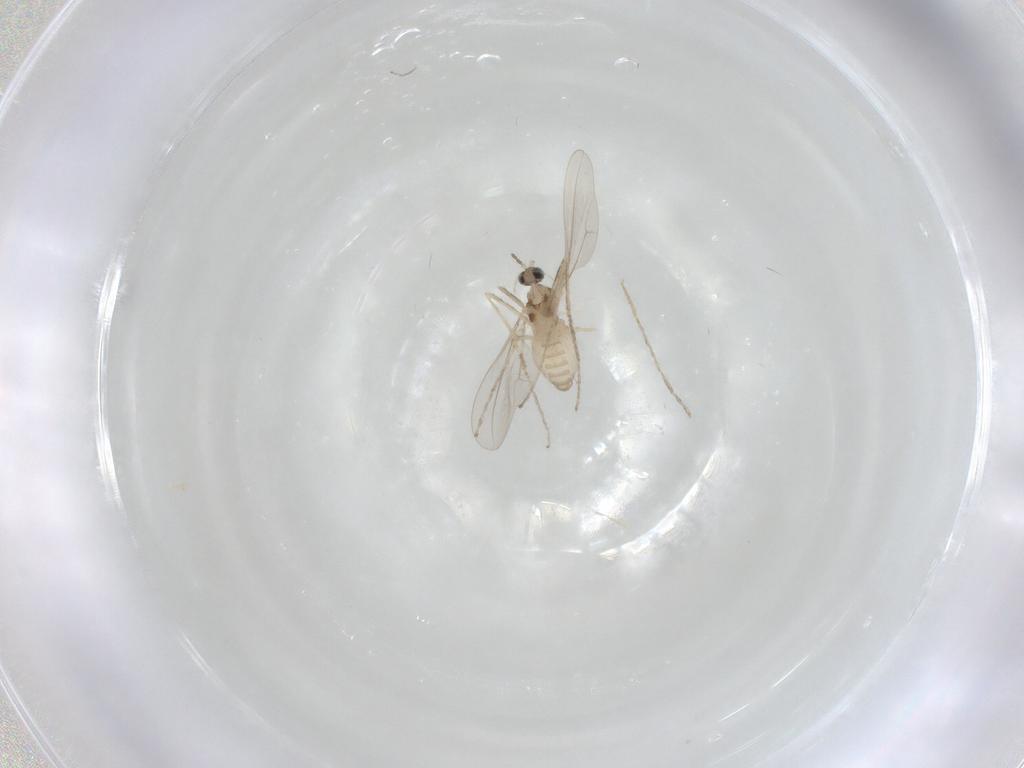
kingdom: Animalia
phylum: Arthropoda
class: Insecta
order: Diptera
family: Cecidomyiidae
